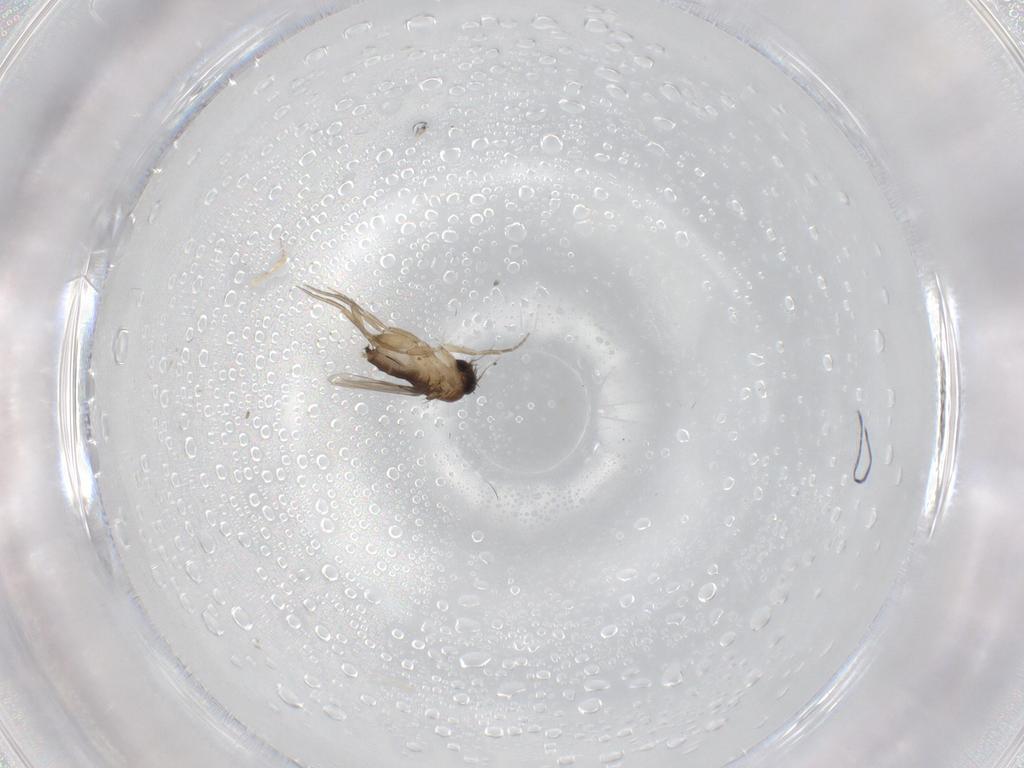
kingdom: Animalia
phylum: Arthropoda
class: Insecta
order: Diptera
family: Phoridae
